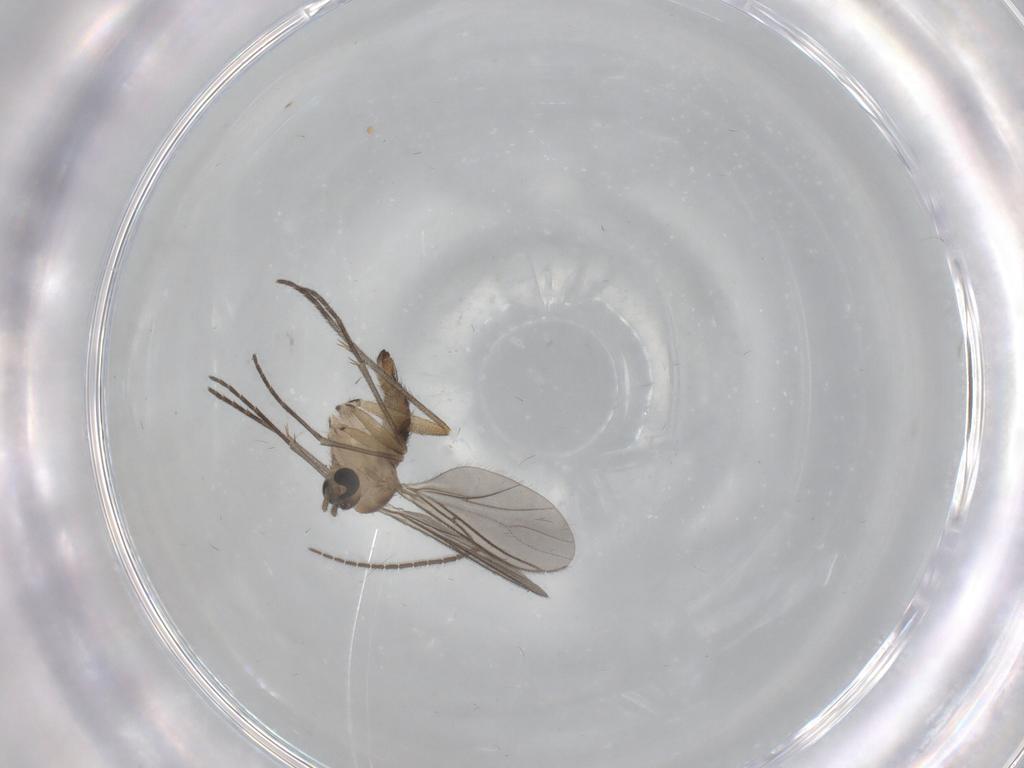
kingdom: Animalia
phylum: Arthropoda
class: Insecta
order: Diptera
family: Sciaridae
